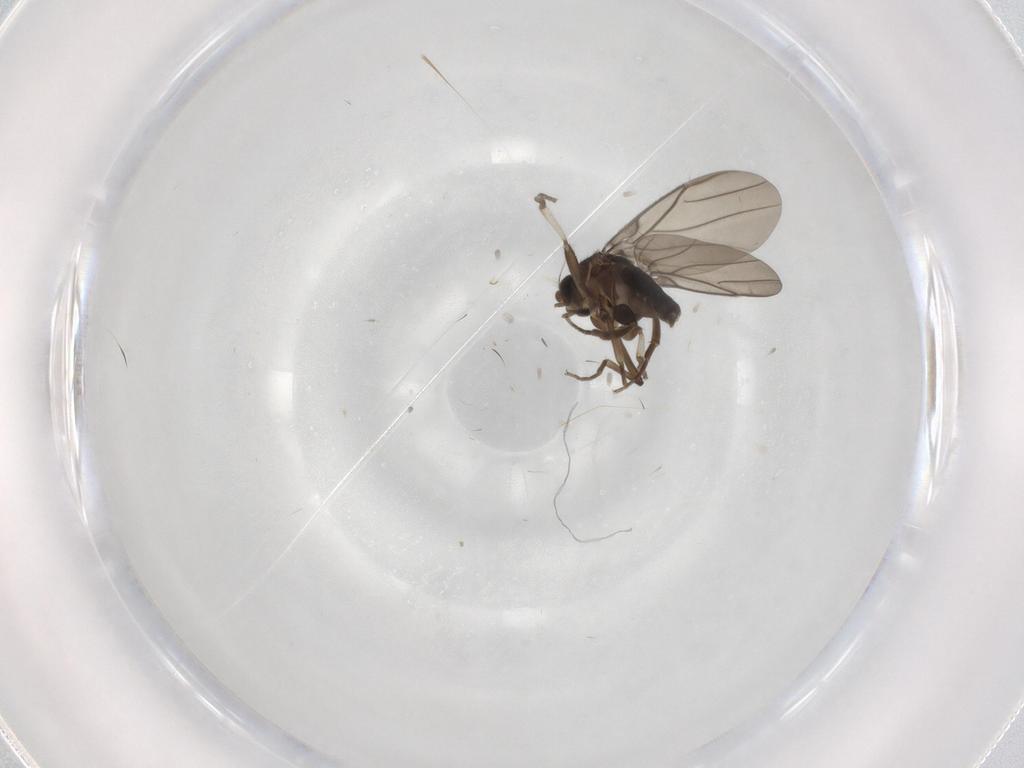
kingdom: Animalia
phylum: Arthropoda
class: Insecta
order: Diptera
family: Phoridae
